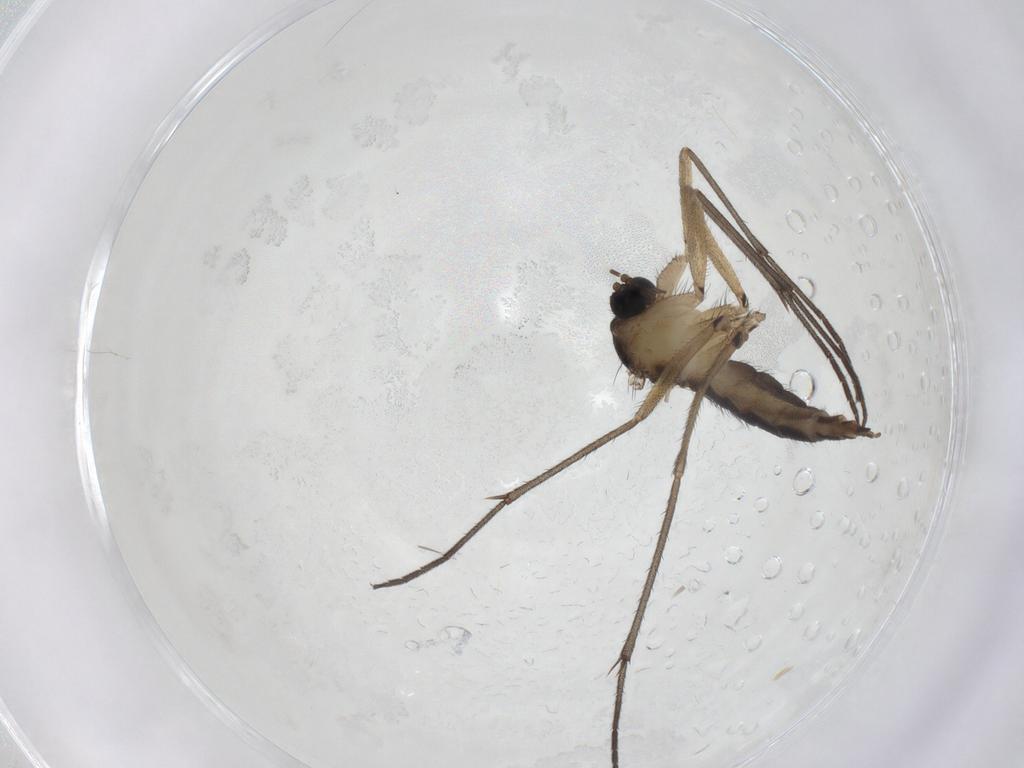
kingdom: Animalia
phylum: Arthropoda
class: Insecta
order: Diptera
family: Sciaridae
